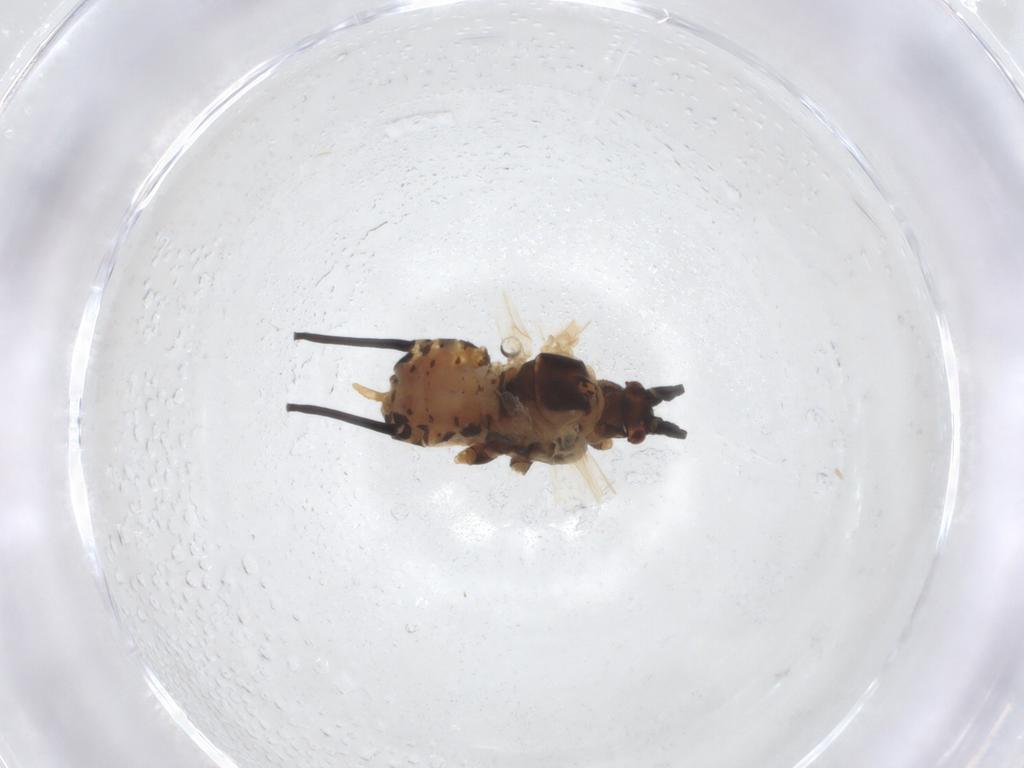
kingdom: Animalia
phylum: Arthropoda
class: Insecta
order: Hemiptera
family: Aphididae
